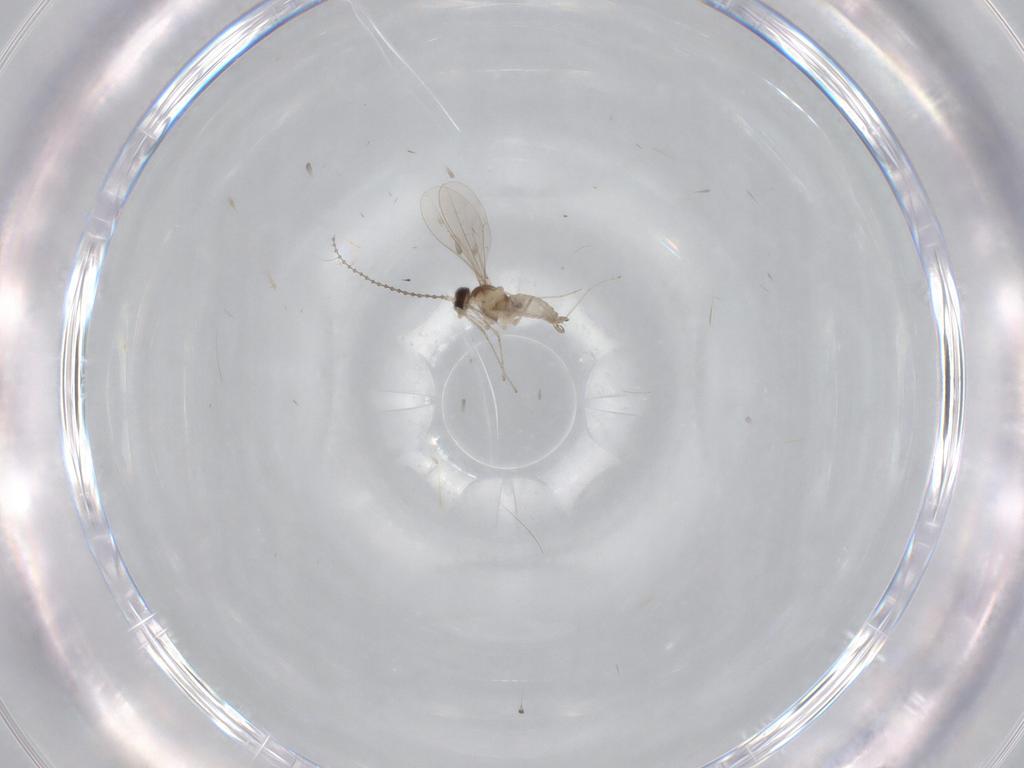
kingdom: Animalia
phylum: Arthropoda
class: Insecta
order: Diptera
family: Cecidomyiidae
